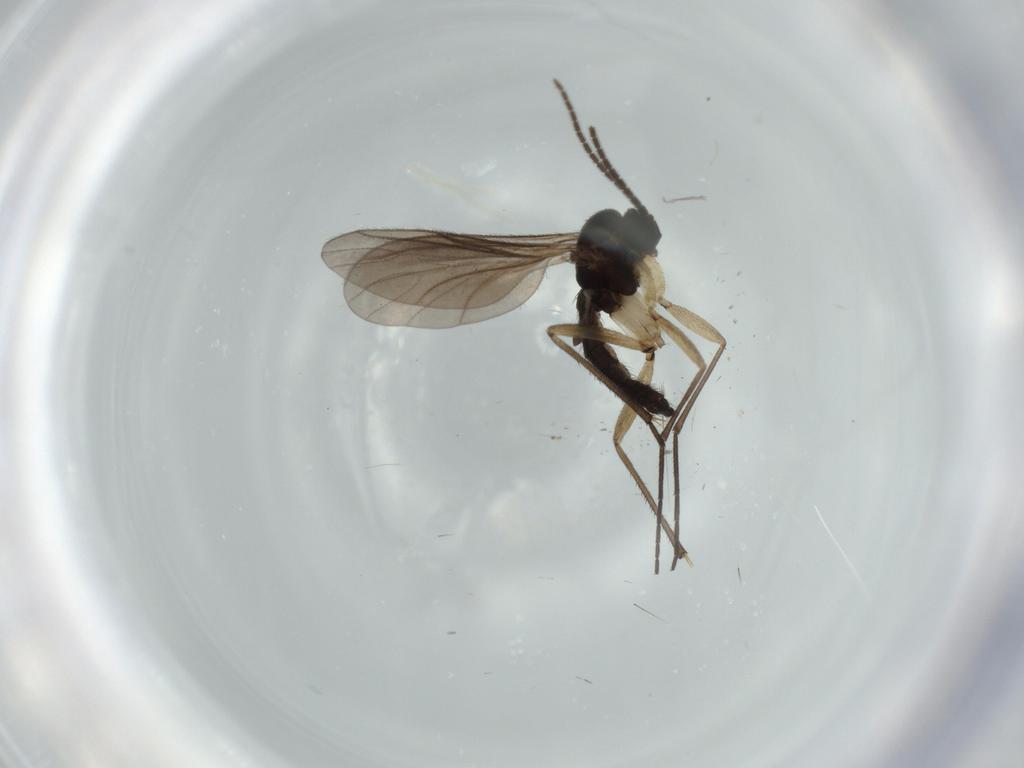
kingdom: Animalia
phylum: Arthropoda
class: Insecta
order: Diptera
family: Sciaridae
